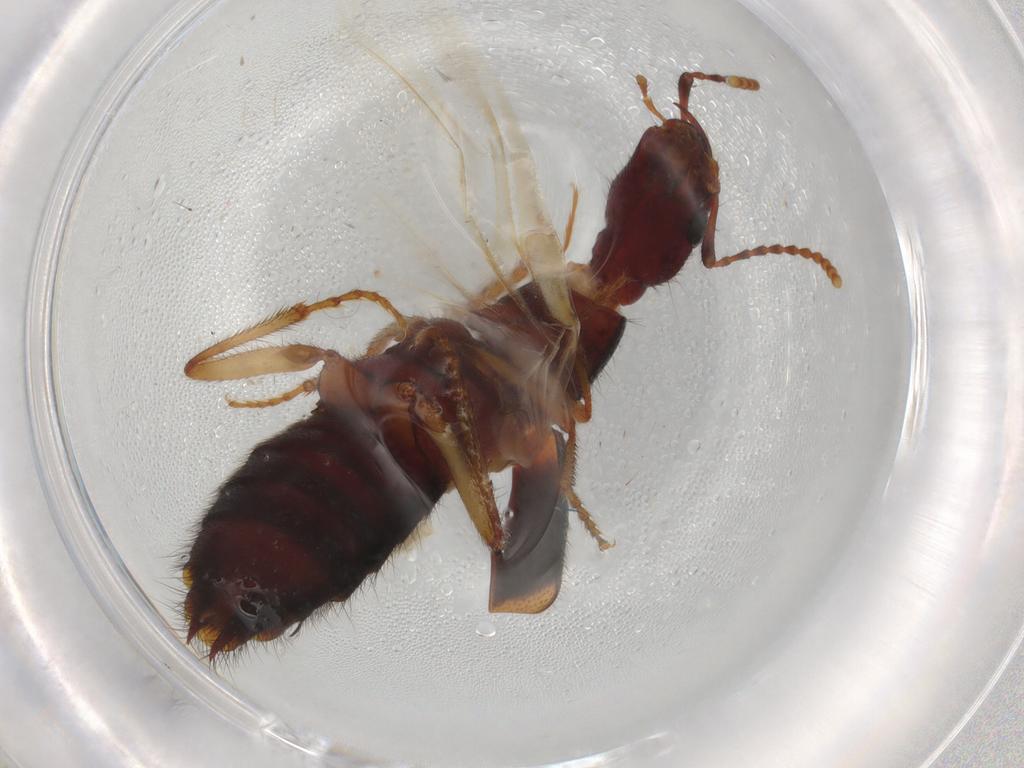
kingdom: Animalia
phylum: Arthropoda
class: Insecta
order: Coleoptera
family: Staphylinidae
